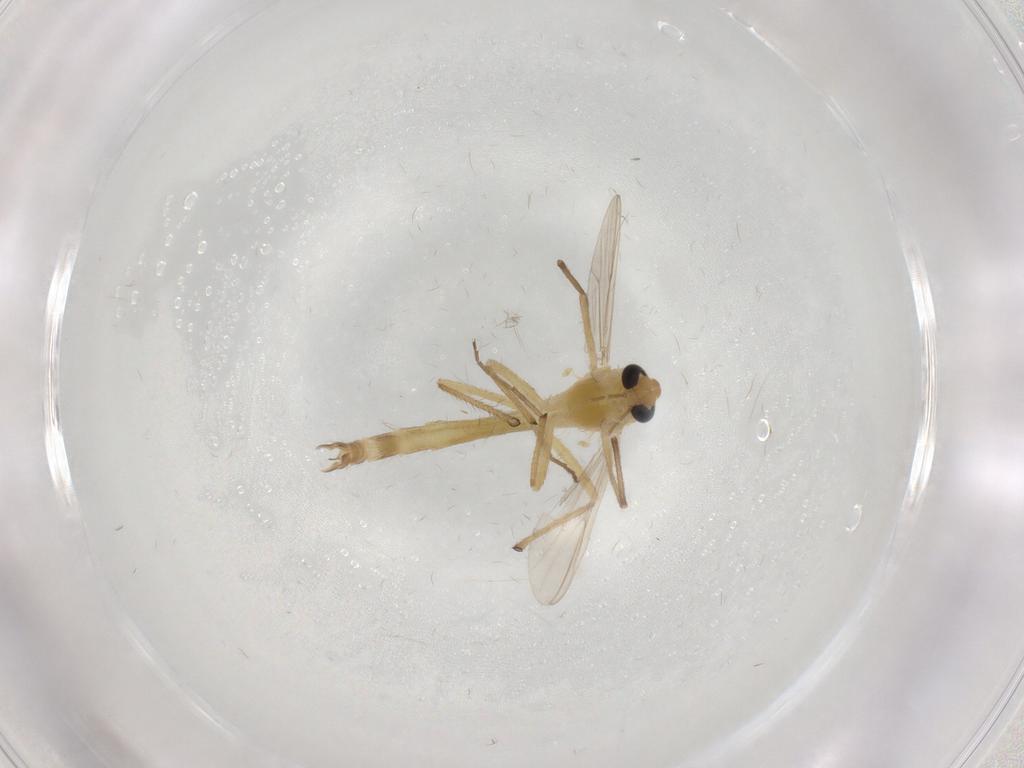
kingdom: Animalia
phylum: Arthropoda
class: Insecta
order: Diptera
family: Chironomidae
